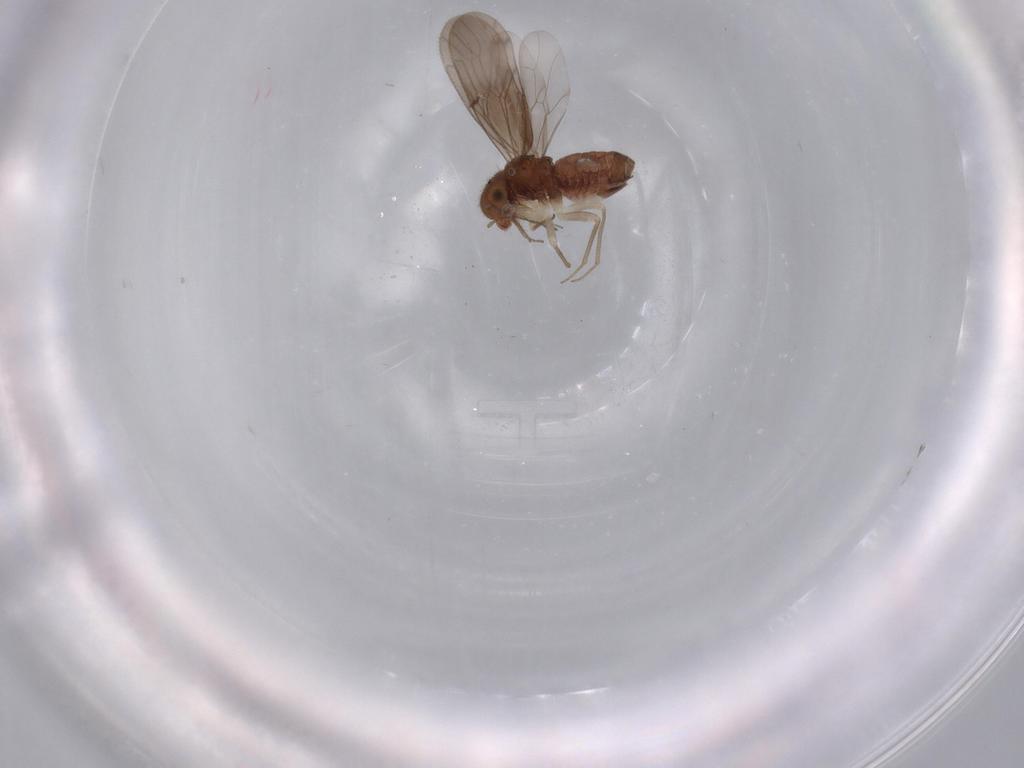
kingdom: Animalia
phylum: Arthropoda
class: Insecta
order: Psocodea
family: Ectopsocidae
